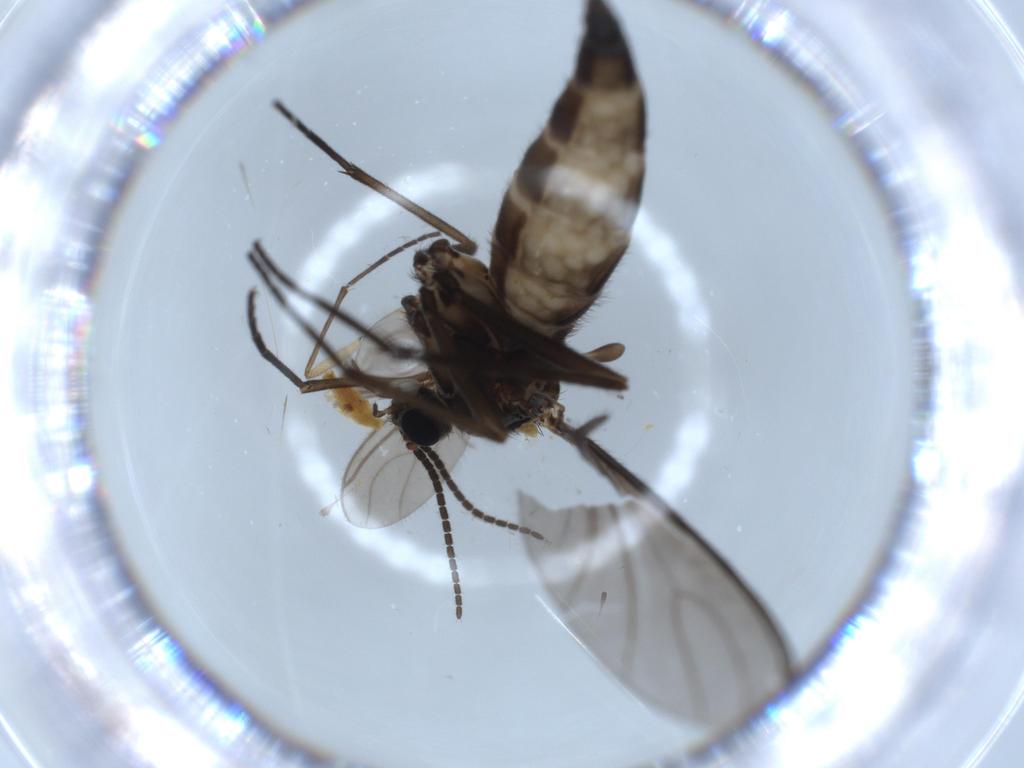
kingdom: Animalia
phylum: Arthropoda
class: Insecta
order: Diptera
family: Sciaridae
